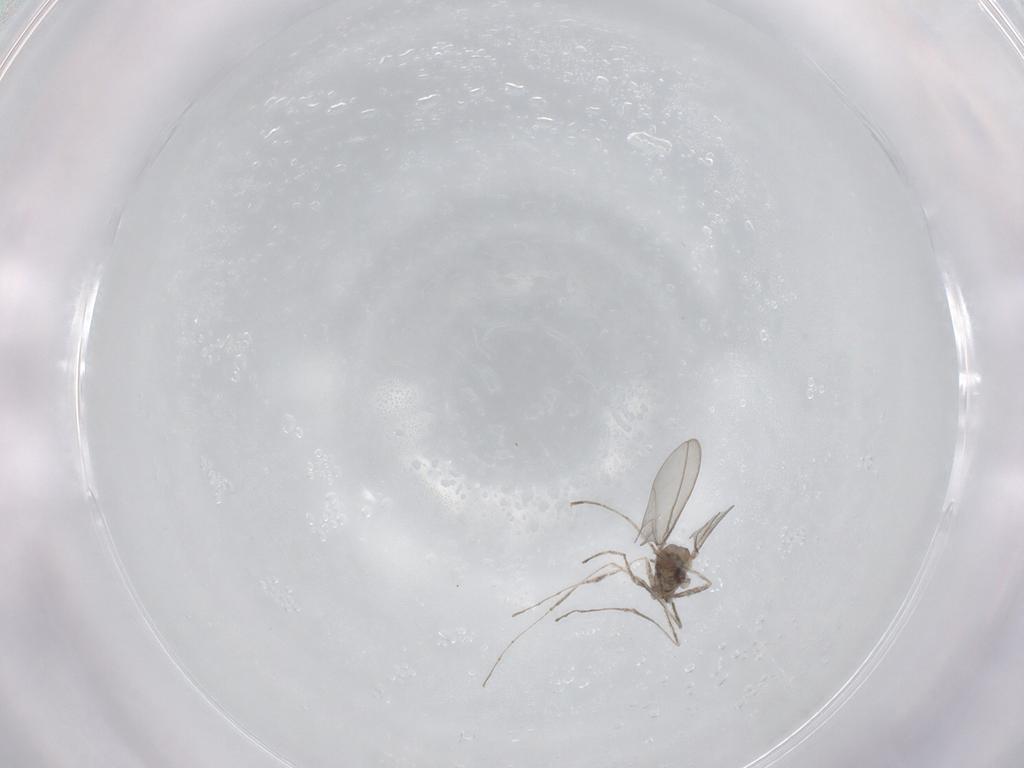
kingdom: Animalia
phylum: Arthropoda
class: Insecta
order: Diptera
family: Cecidomyiidae
